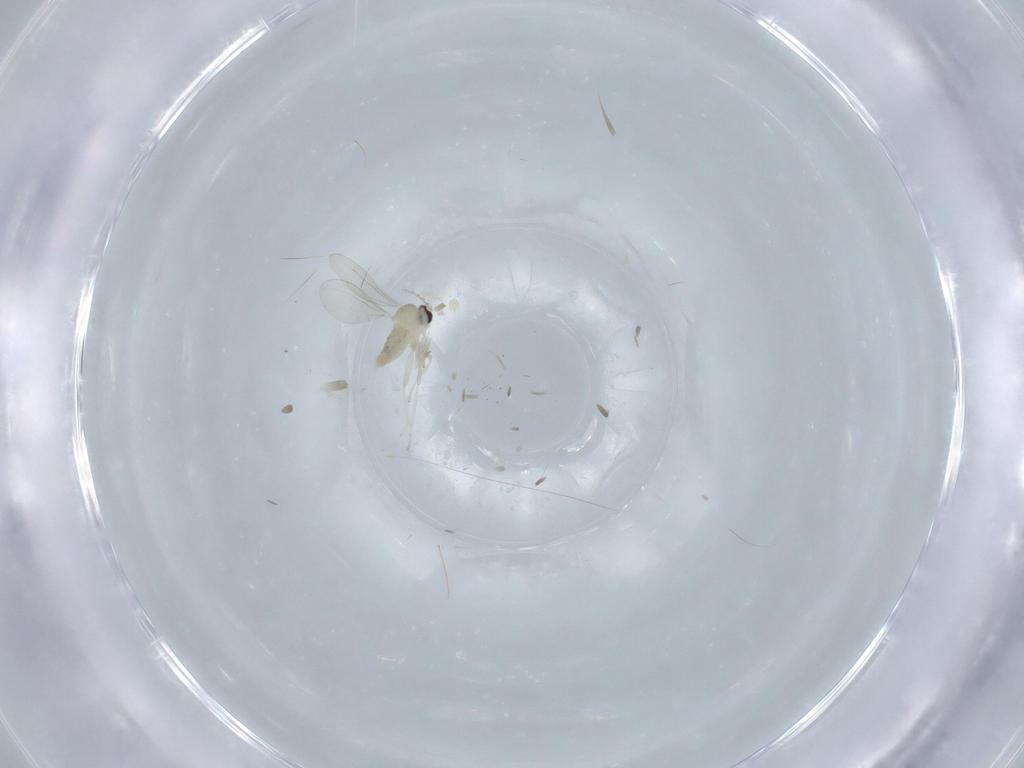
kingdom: Animalia
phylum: Arthropoda
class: Insecta
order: Diptera
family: Cecidomyiidae
